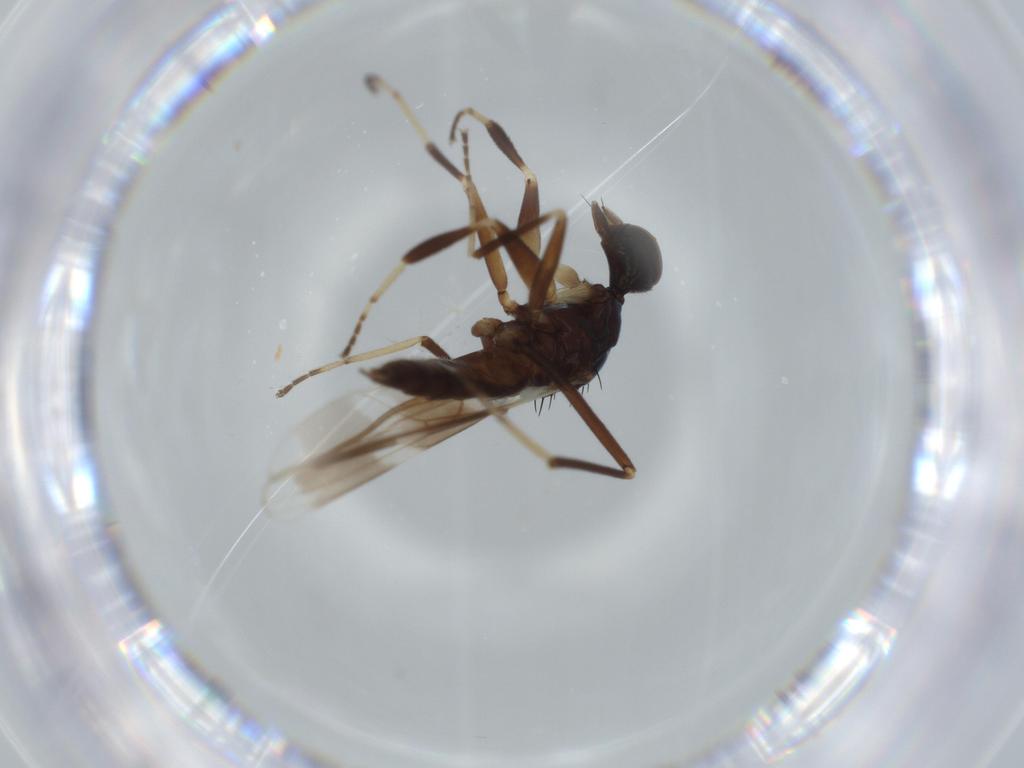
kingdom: Animalia
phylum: Arthropoda
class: Insecta
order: Diptera
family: Hybotidae
